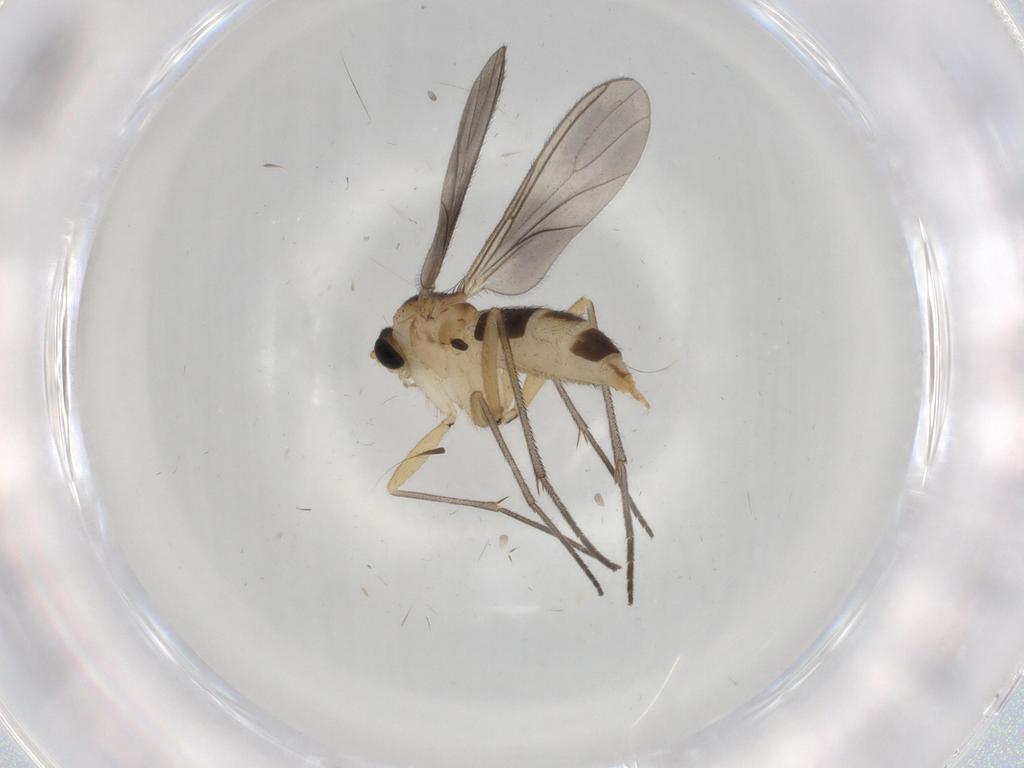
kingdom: Animalia
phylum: Arthropoda
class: Insecta
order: Diptera
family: Sciaridae
